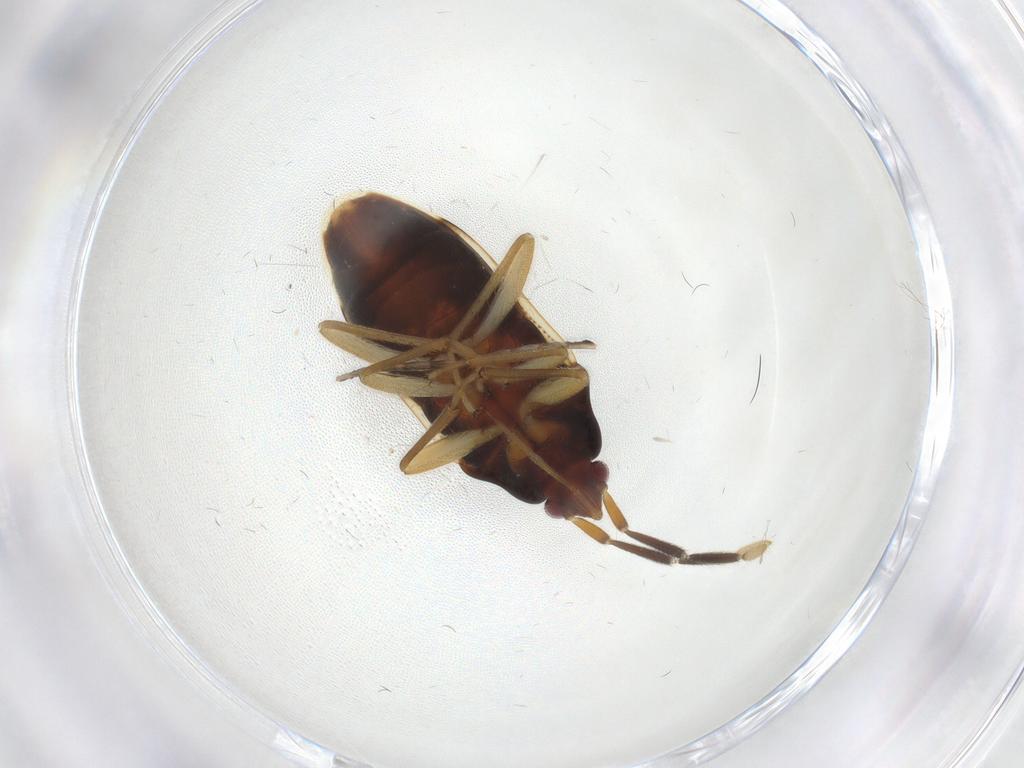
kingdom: Animalia
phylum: Arthropoda
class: Insecta
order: Hemiptera
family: Rhyparochromidae
